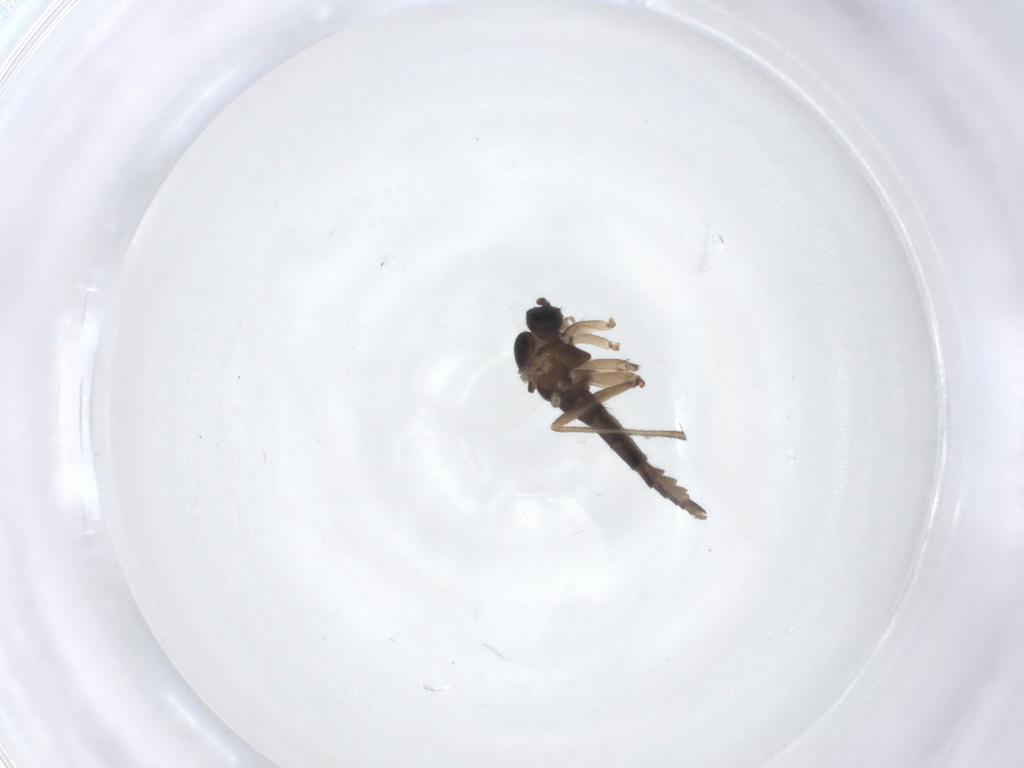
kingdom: Animalia
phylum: Arthropoda
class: Insecta
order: Diptera
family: Sciaridae
